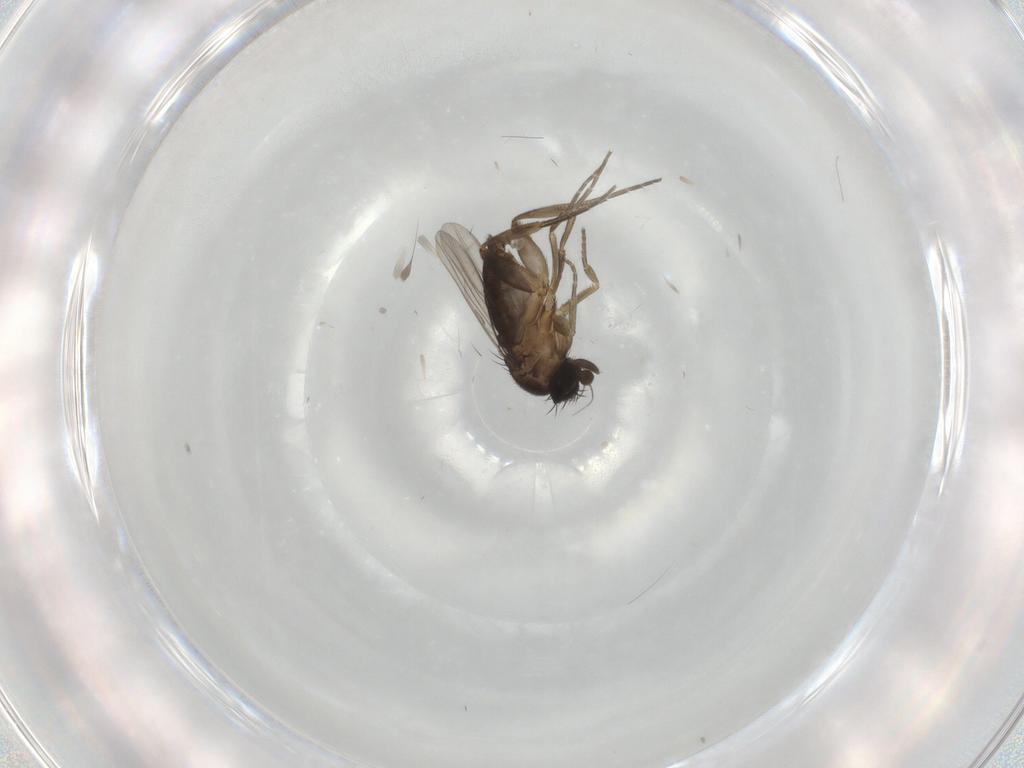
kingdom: Animalia
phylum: Arthropoda
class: Insecta
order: Diptera
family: Phoridae
